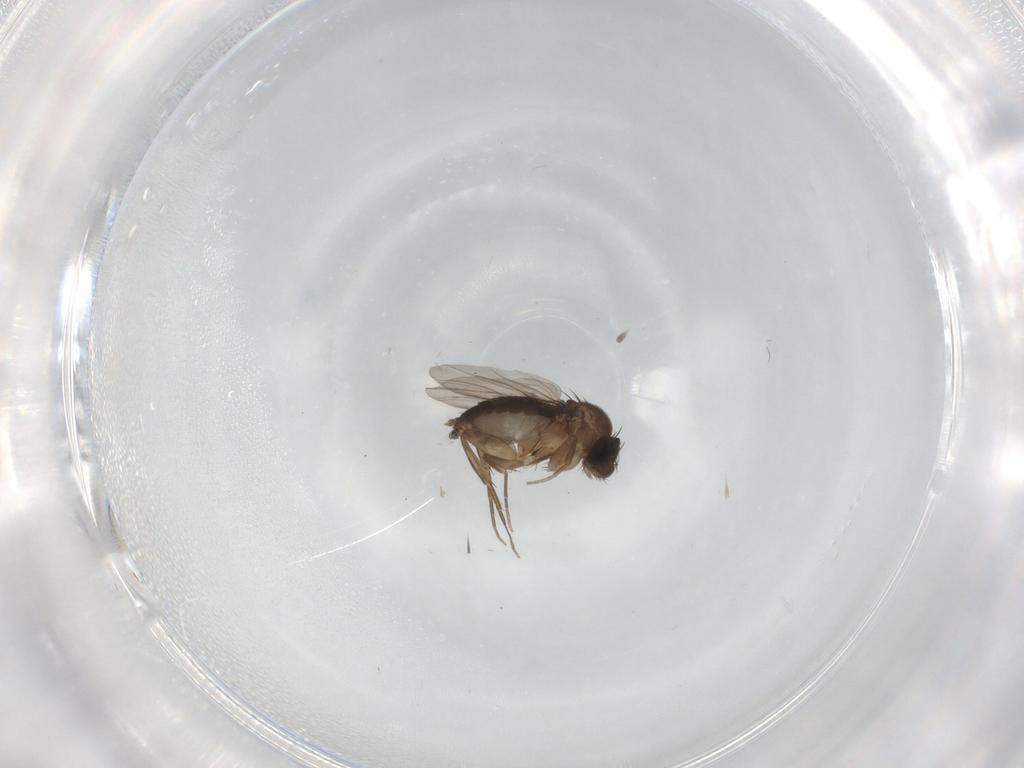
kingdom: Animalia
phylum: Arthropoda
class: Insecta
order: Diptera
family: Phoridae
